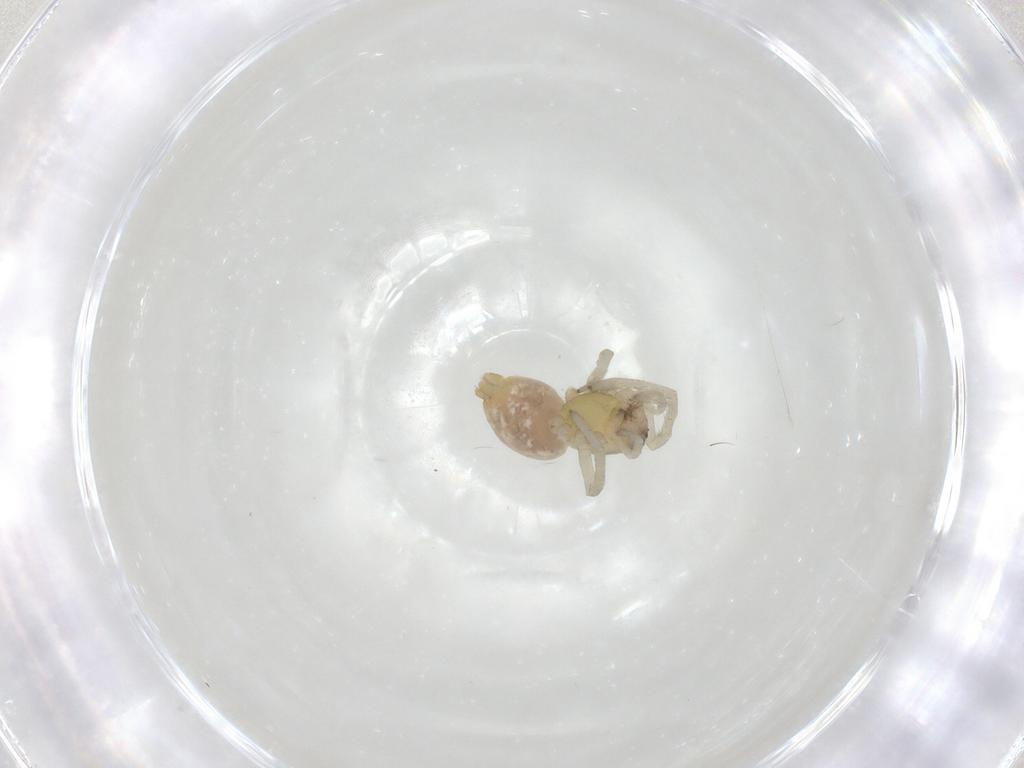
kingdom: Animalia
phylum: Arthropoda
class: Arachnida
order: Araneae
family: Cheiracanthiidae
